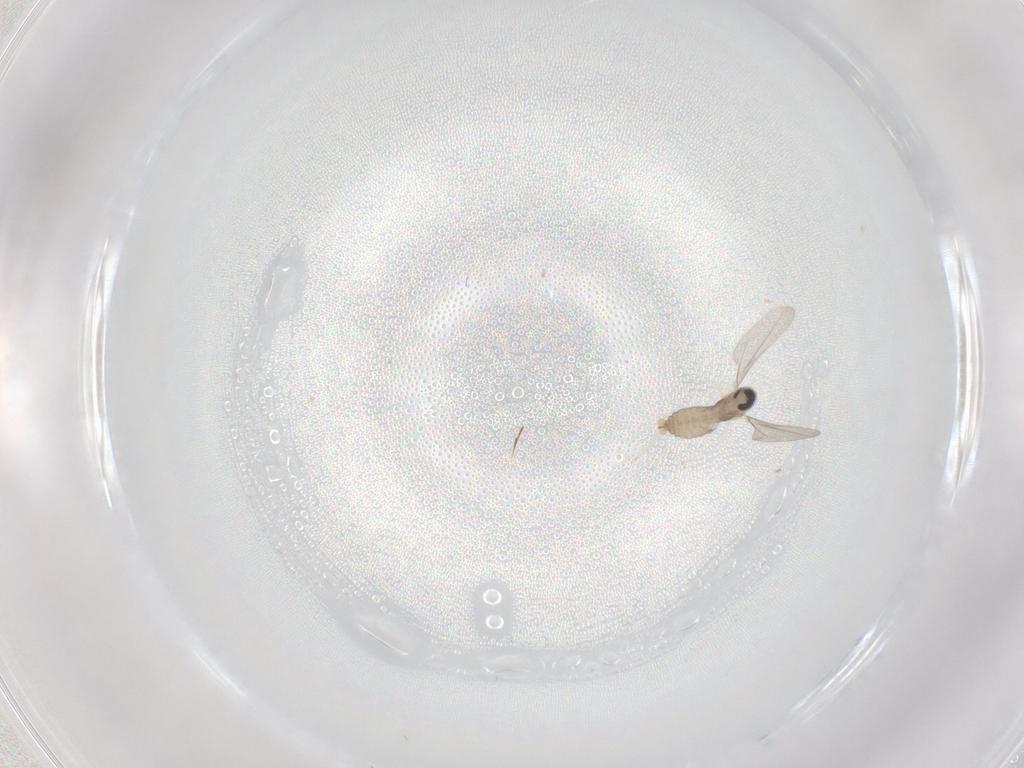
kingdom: Animalia
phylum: Arthropoda
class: Insecta
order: Diptera
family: Cecidomyiidae
